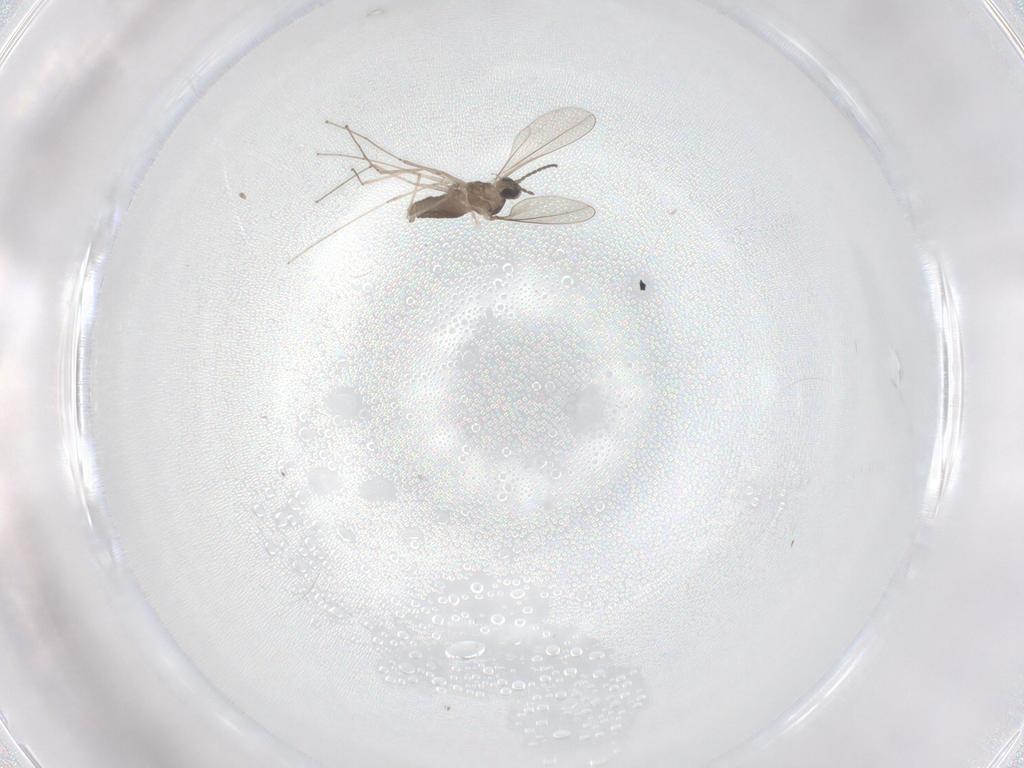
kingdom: Animalia
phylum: Arthropoda
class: Insecta
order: Diptera
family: Cecidomyiidae
